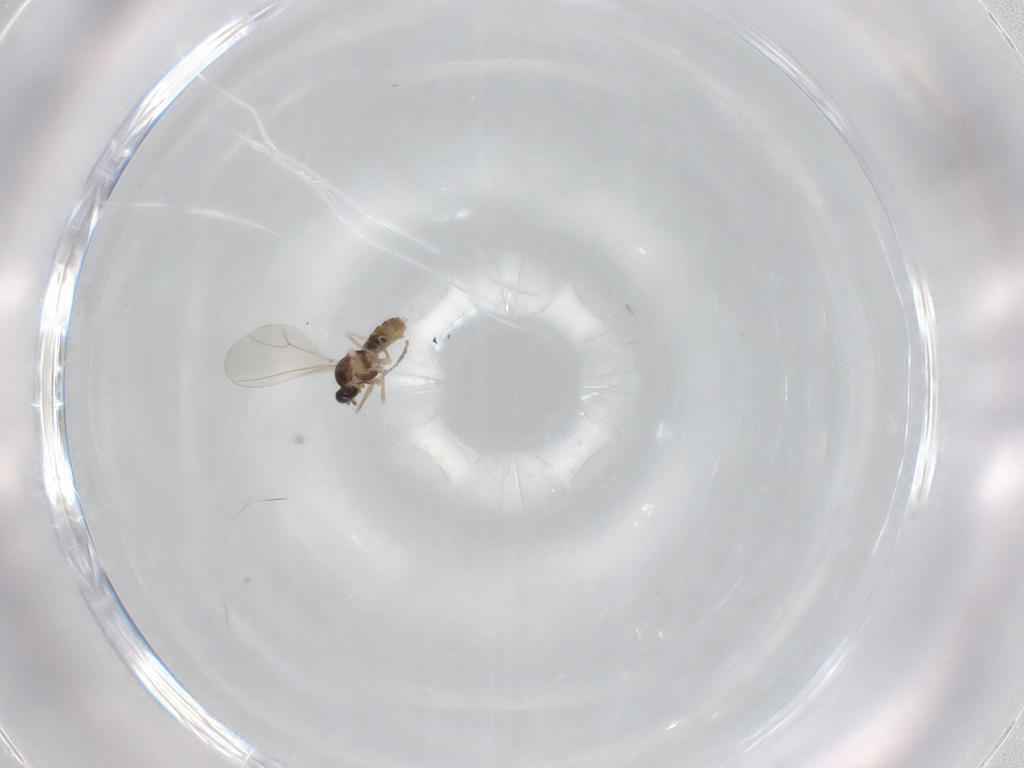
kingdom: Animalia
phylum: Arthropoda
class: Insecta
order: Diptera
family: Cecidomyiidae
